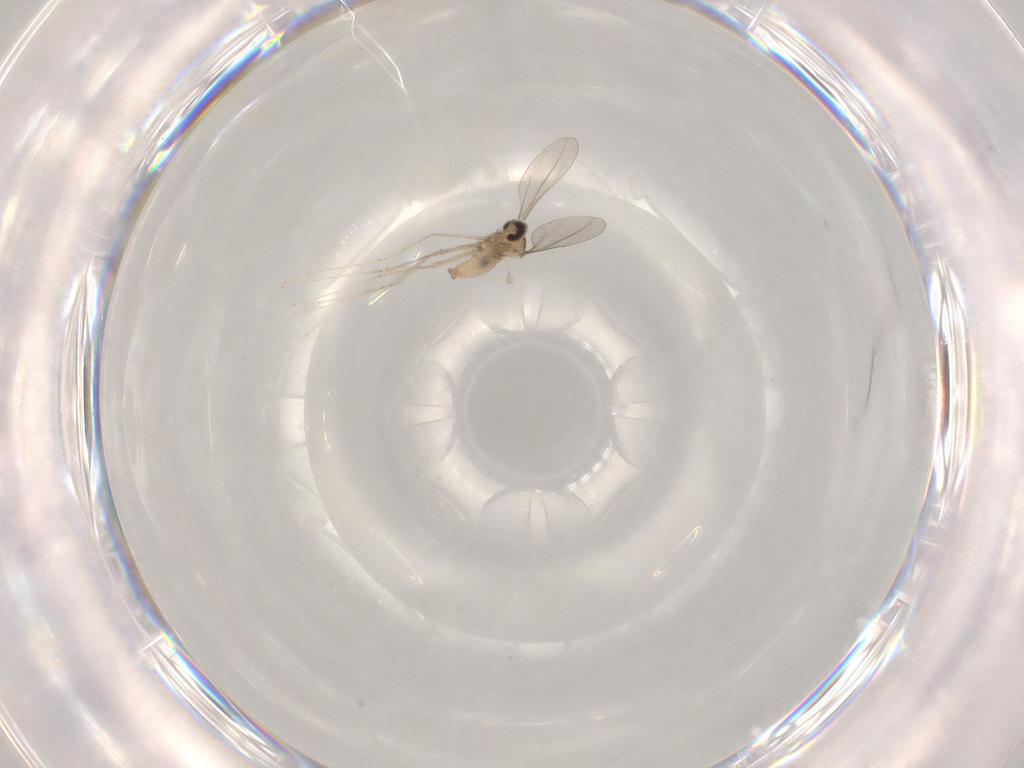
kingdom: Animalia
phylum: Arthropoda
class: Insecta
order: Diptera
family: Cecidomyiidae
